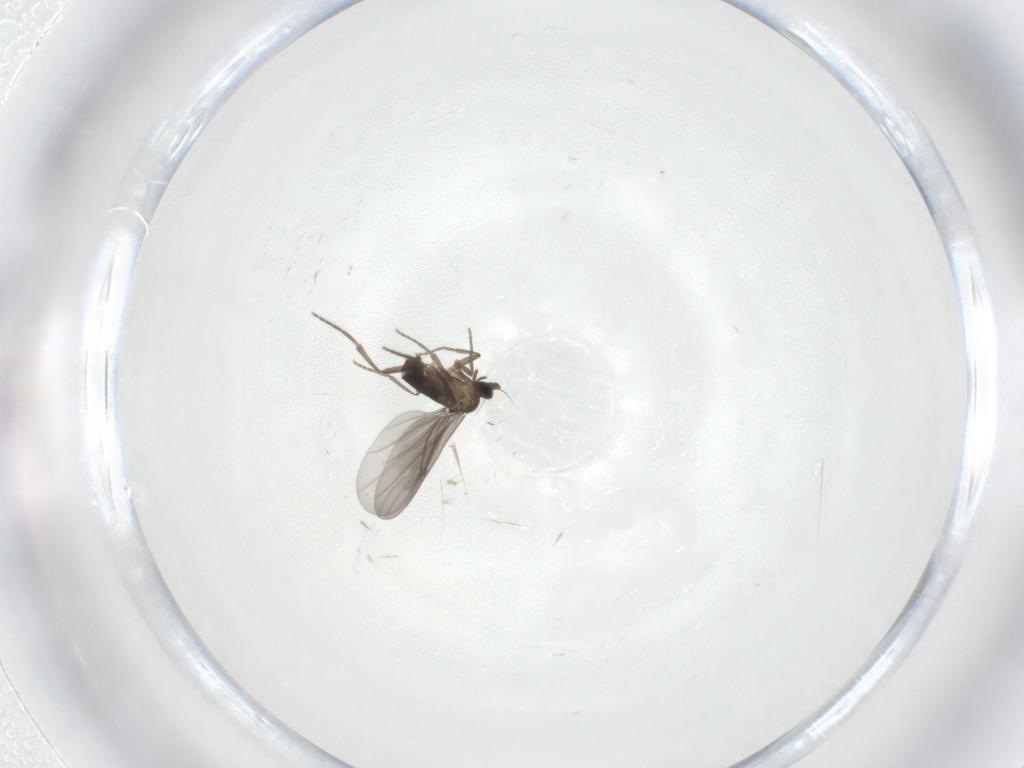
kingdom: Animalia
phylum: Arthropoda
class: Insecta
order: Diptera
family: Phoridae
